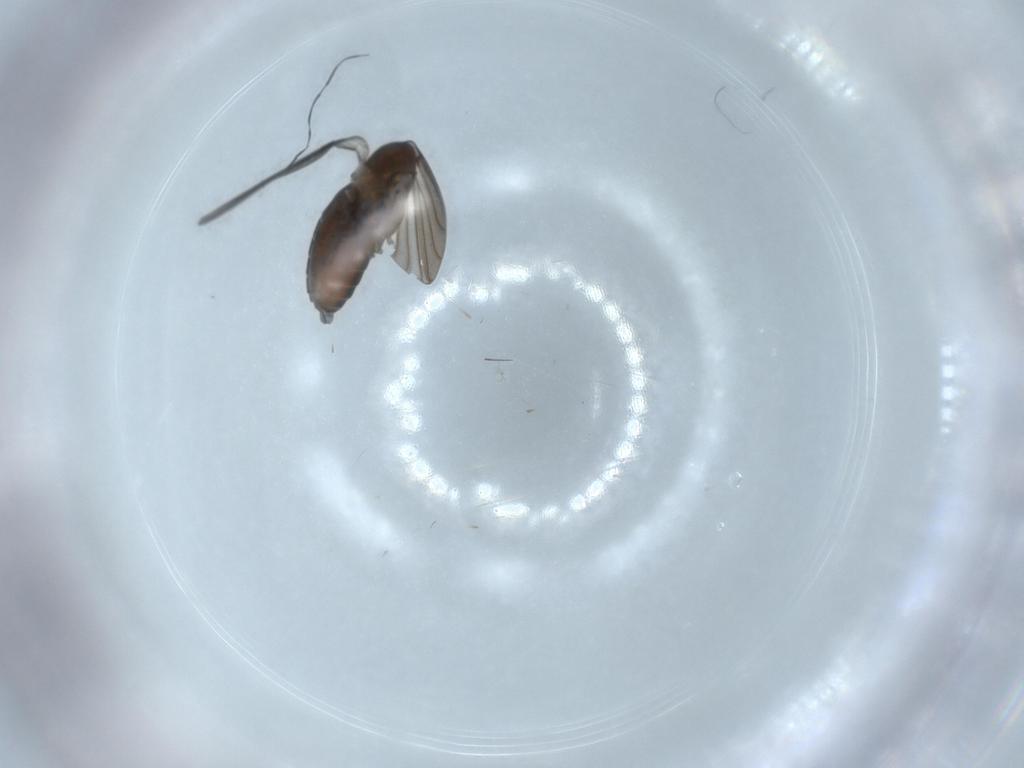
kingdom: Animalia
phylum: Arthropoda
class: Insecta
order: Diptera
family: Psychodidae
